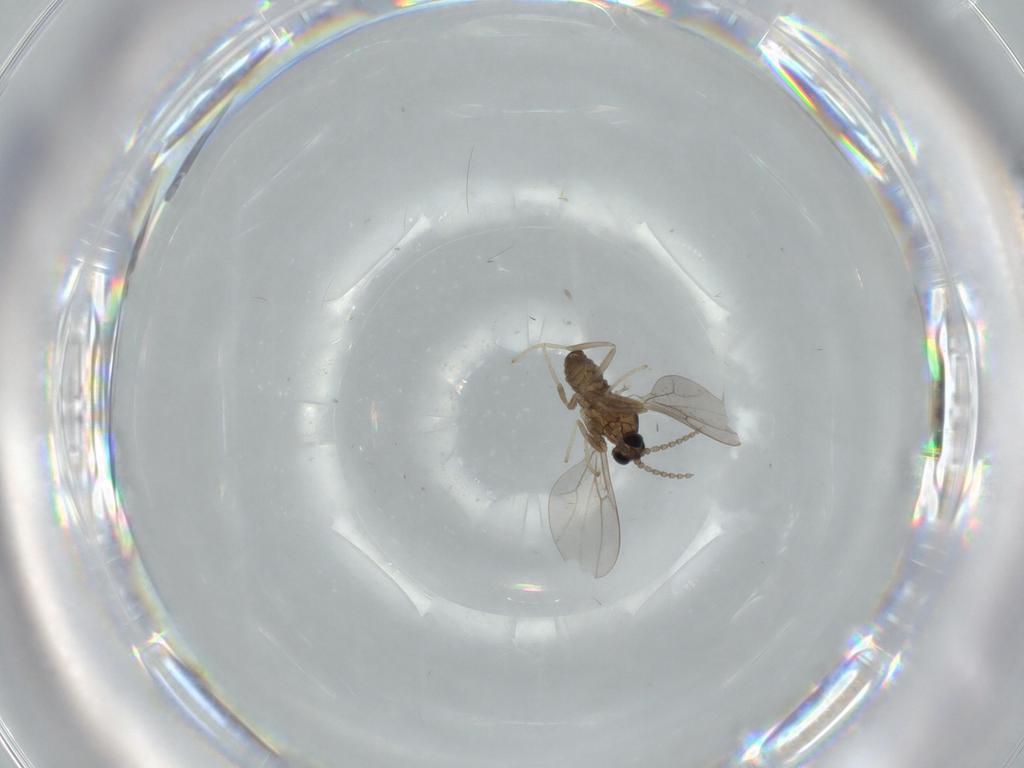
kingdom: Animalia
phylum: Arthropoda
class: Insecta
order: Diptera
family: Cecidomyiidae
